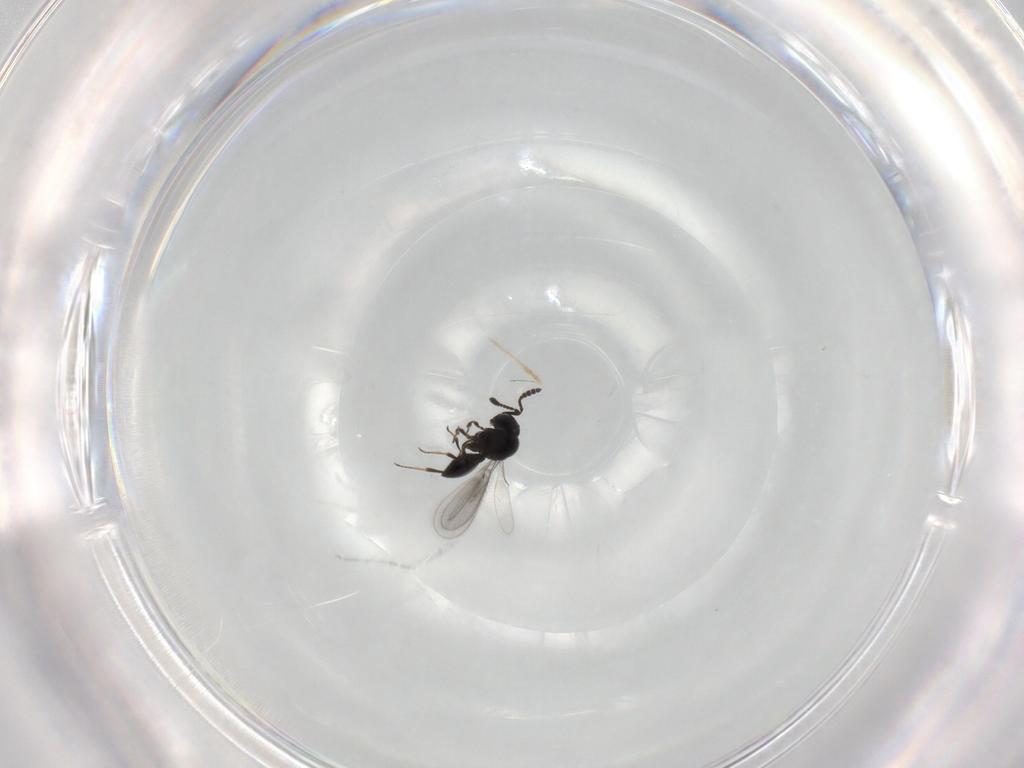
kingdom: Animalia
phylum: Arthropoda
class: Insecta
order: Hymenoptera
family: Scelionidae
